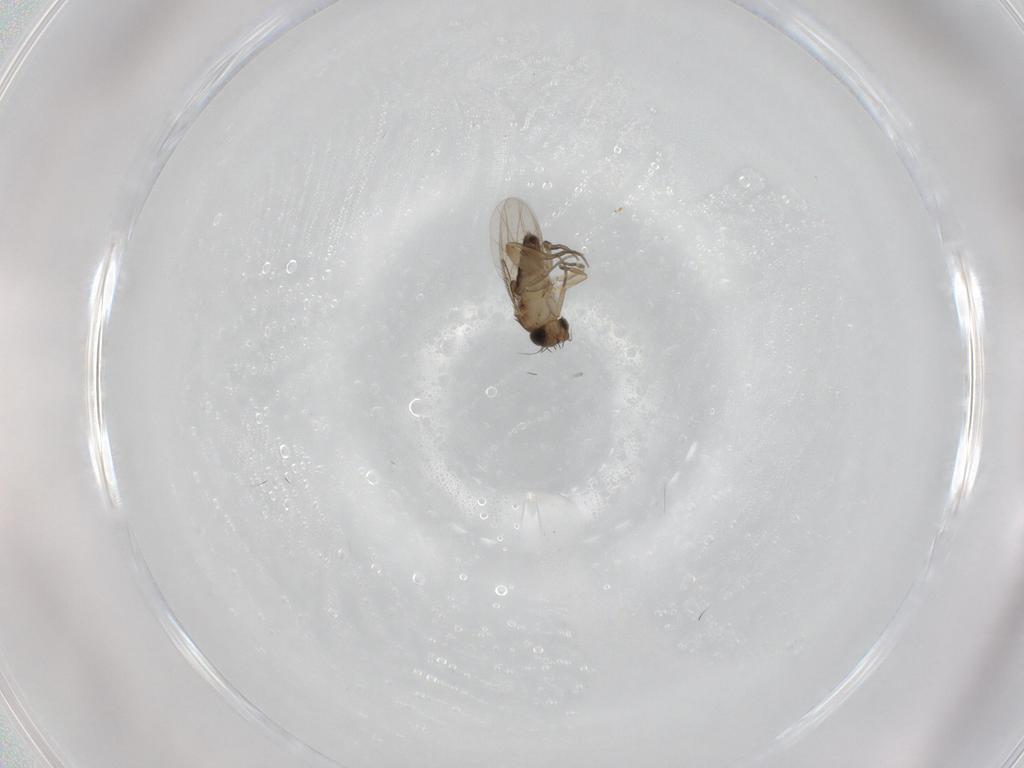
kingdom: Animalia
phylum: Arthropoda
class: Insecta
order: Diptera
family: Phoridae
